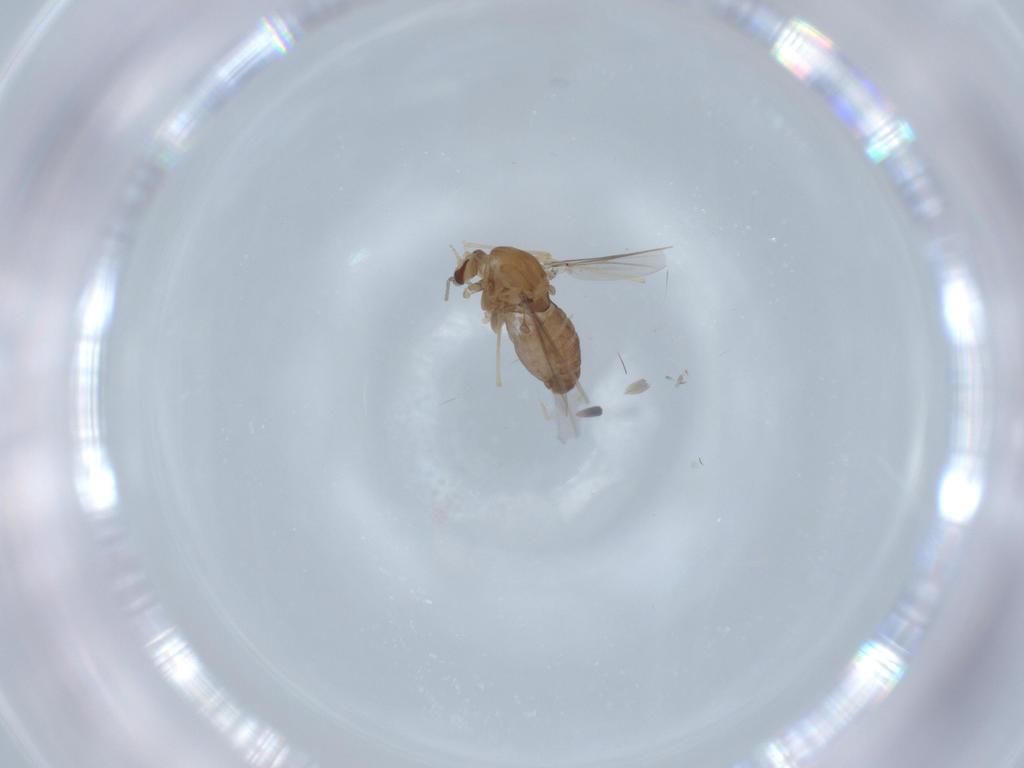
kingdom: Animalia
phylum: Arthropoda
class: Insecta
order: Diptera
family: Chironomidae
